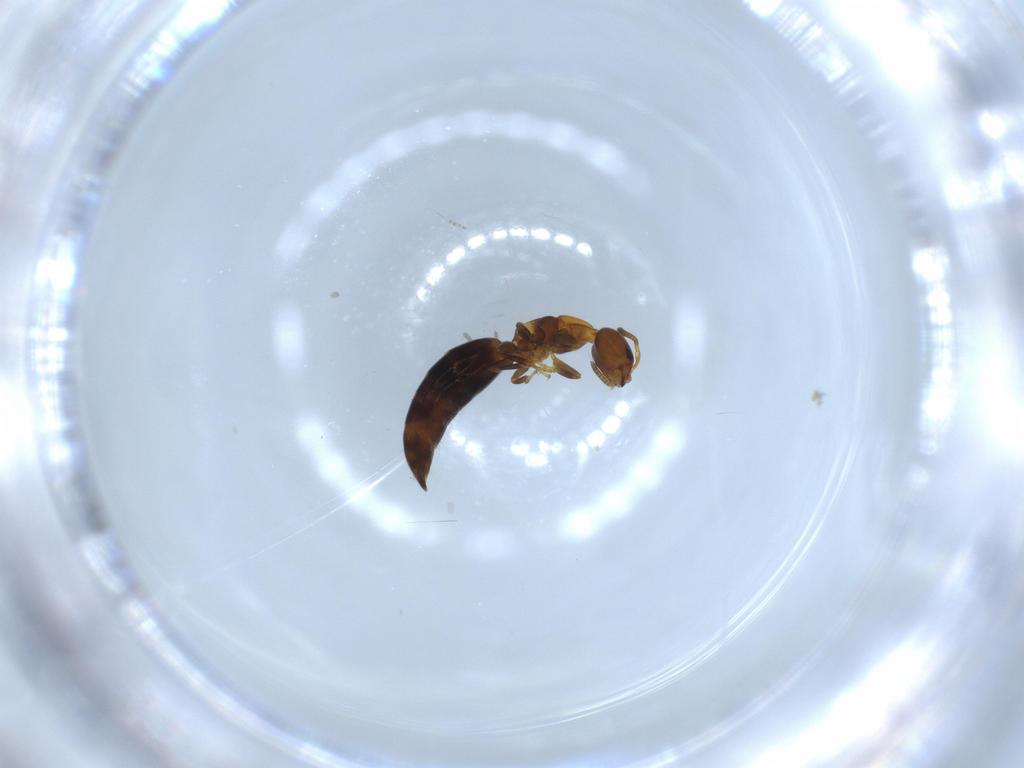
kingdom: Animalia
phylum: Arthropoda
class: Insecta
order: Hymenoptera
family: Bethylidae
